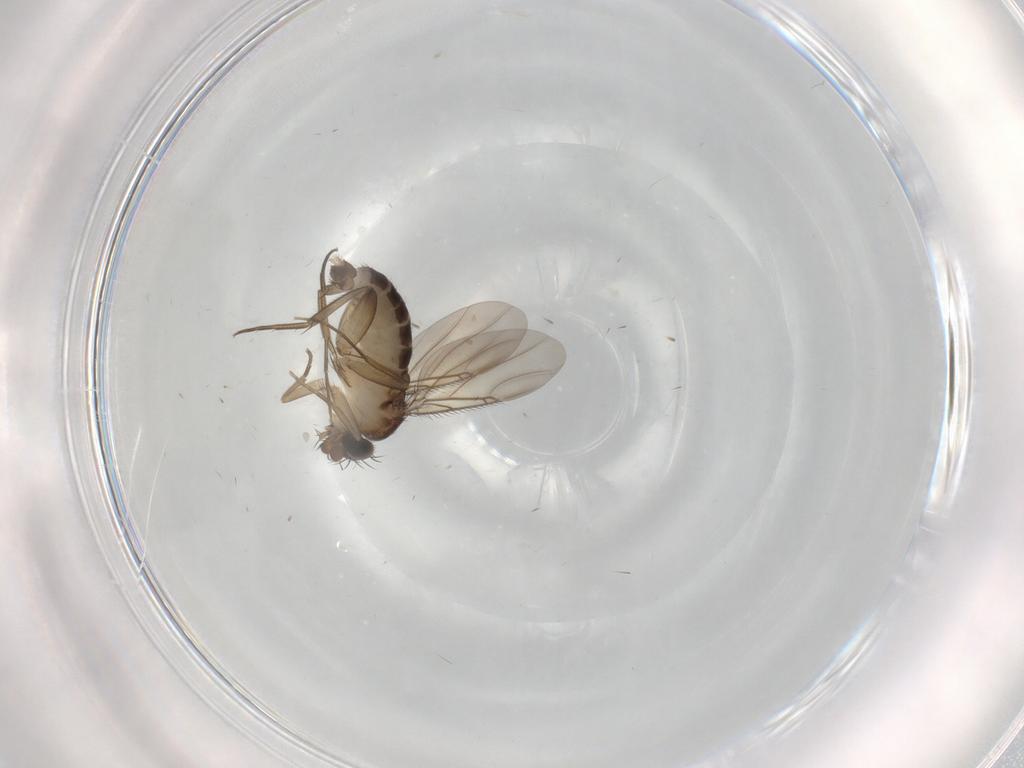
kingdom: Animalia
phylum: Arthropoda
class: Insecta
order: Diptera
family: Phoridae
